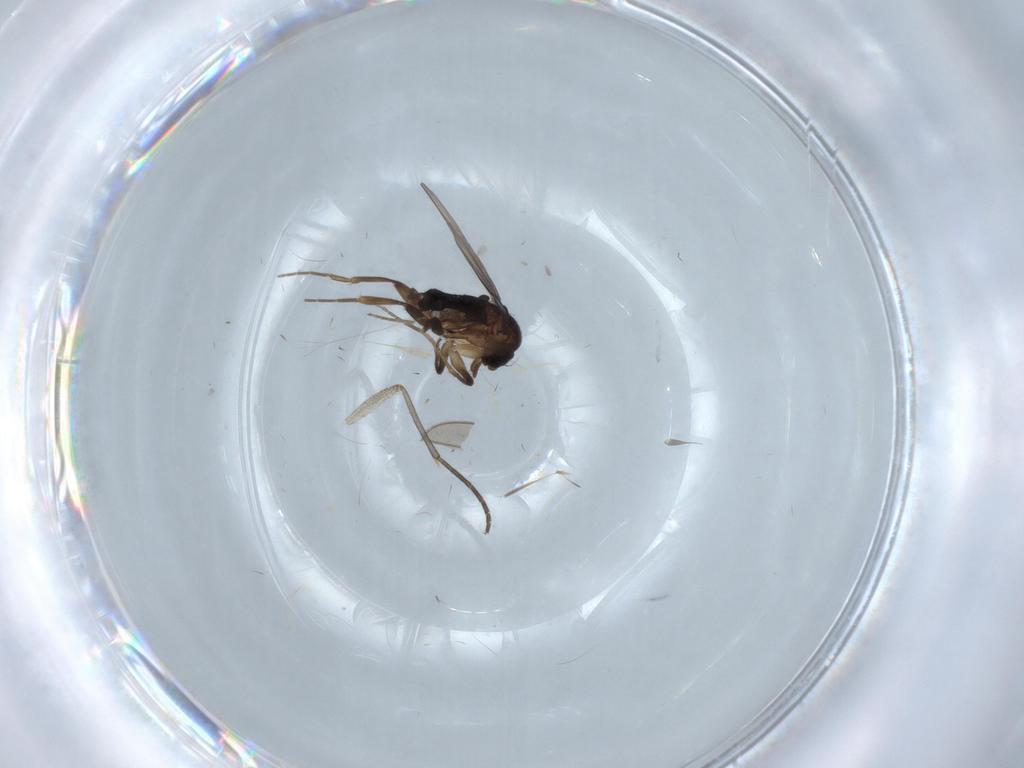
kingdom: Animalia
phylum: Arthropoda
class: Insecta
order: Diptera
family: Phoridae
